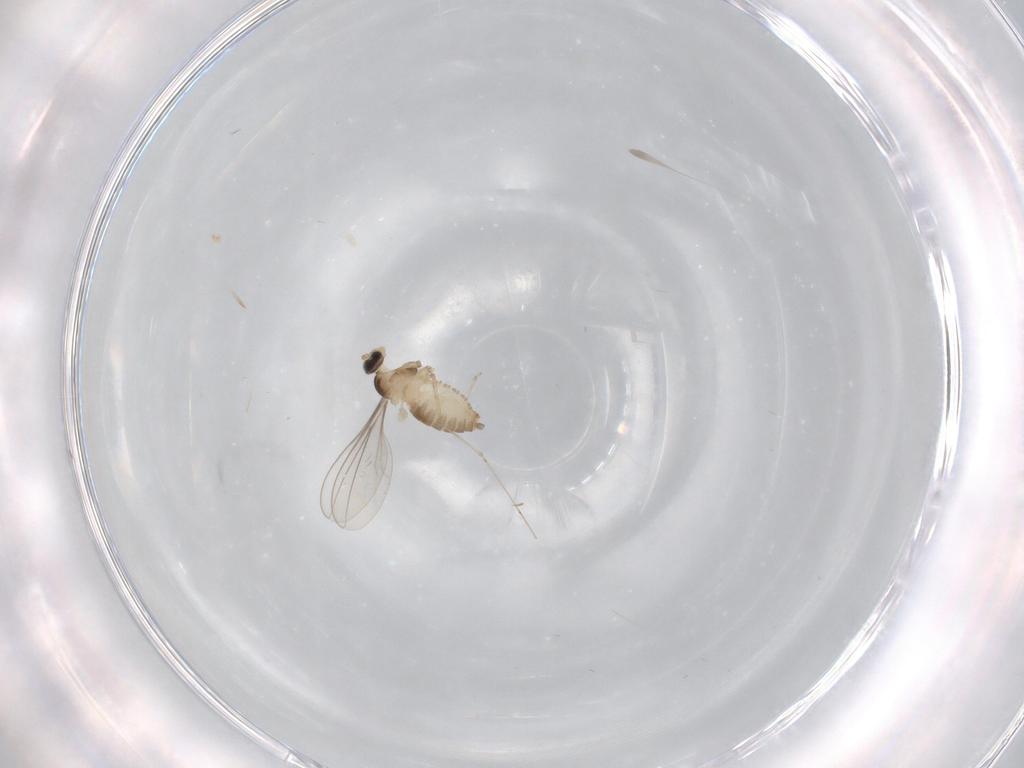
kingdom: Animalia
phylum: Arthropoda
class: Insecta
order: Diptera
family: Cecidomyiidae
